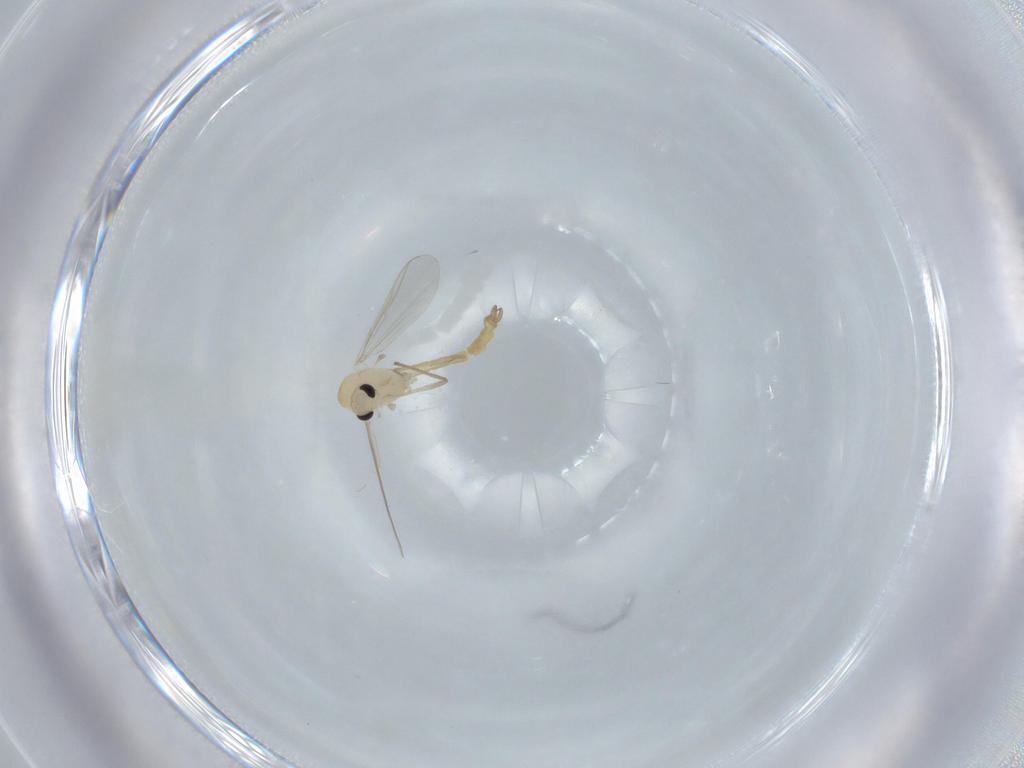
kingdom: Animalia
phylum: Arthropoda
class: Insecta
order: Diptera
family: Chironomidae
